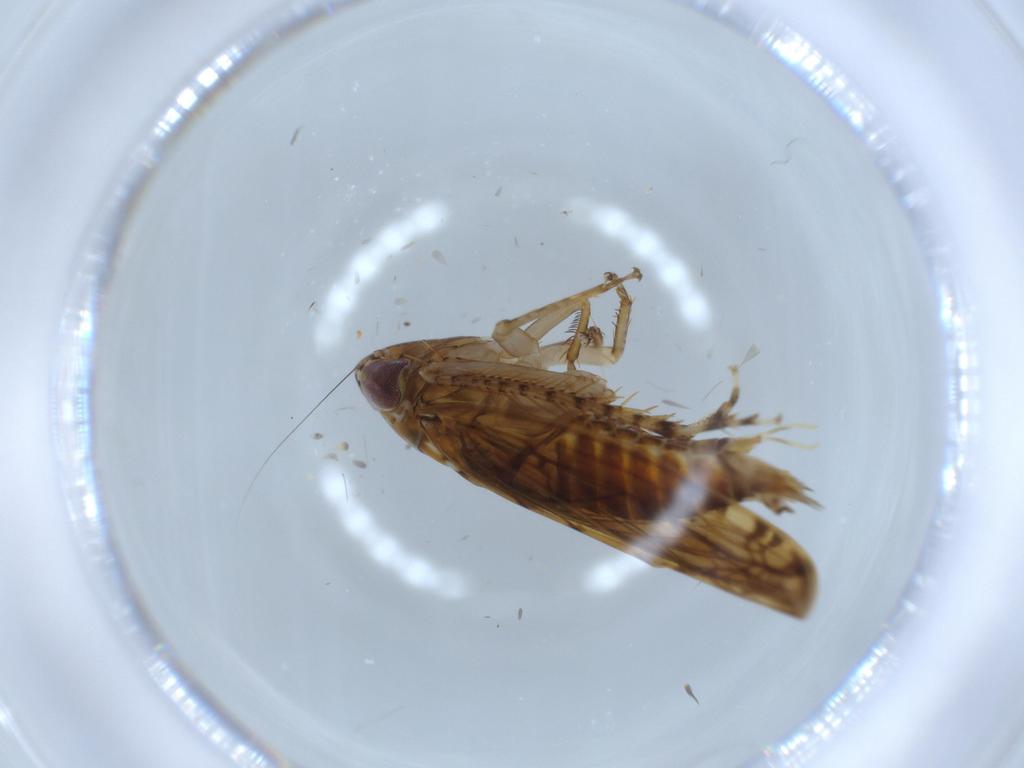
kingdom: Animalia
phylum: Arthropoda
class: Insecta
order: Hemiptera
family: Cicadellidae
